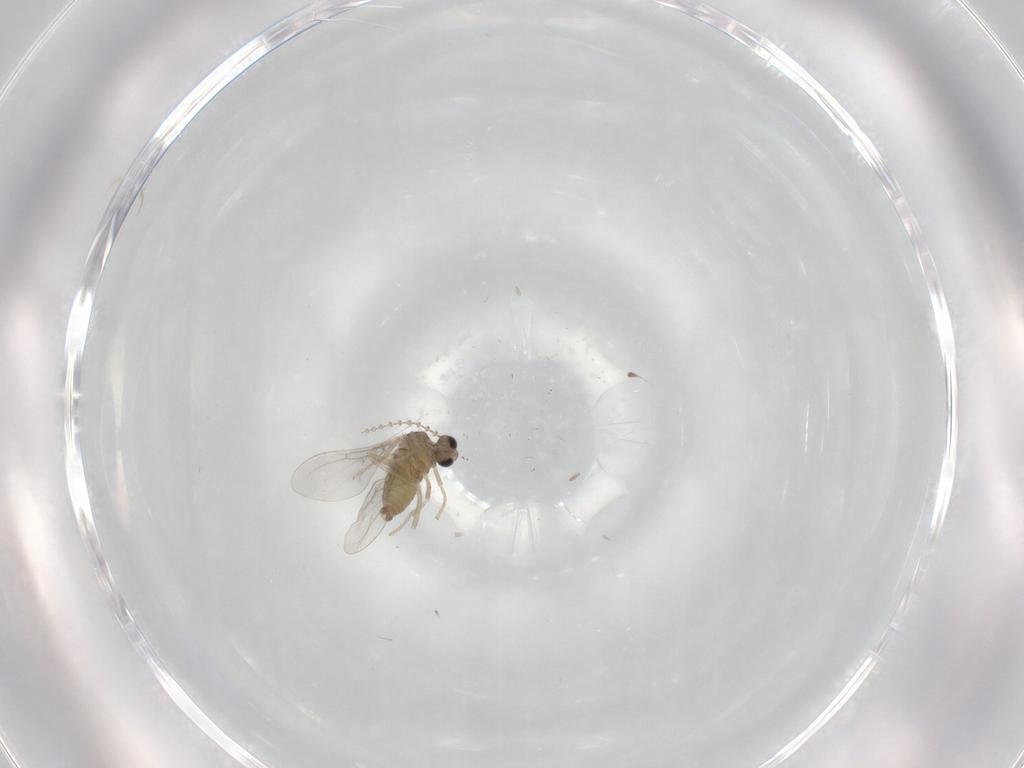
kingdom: Animalia
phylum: Arthropoda
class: Insecta
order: Diptera
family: Cecidomyiidae
